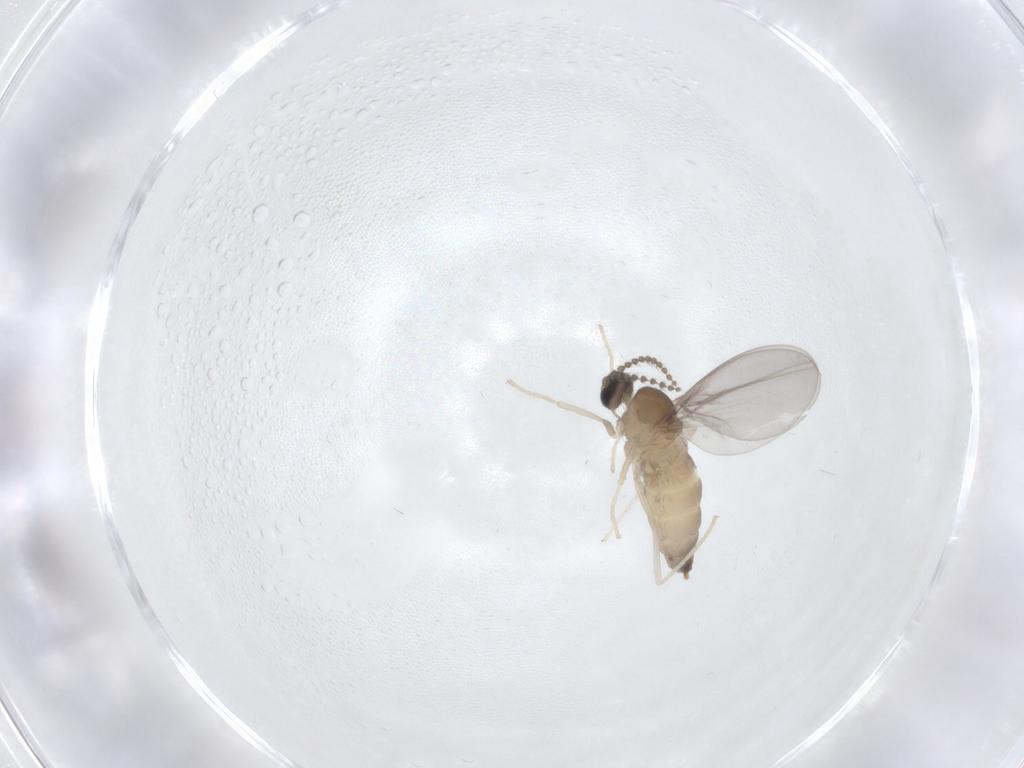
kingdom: Animalia
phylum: Arthropoda
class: Insecta
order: Diptera
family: Cecidomyiidae
